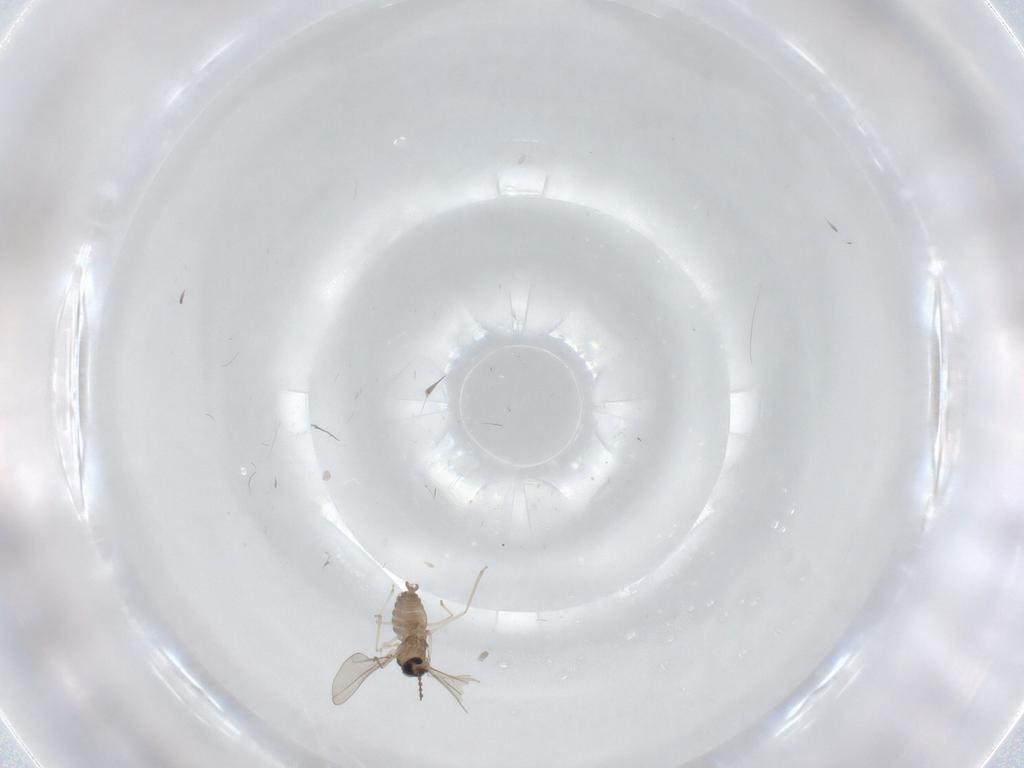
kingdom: Animalia
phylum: Arthropoda
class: Insecta
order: Diptera
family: Cecidomyiidae
